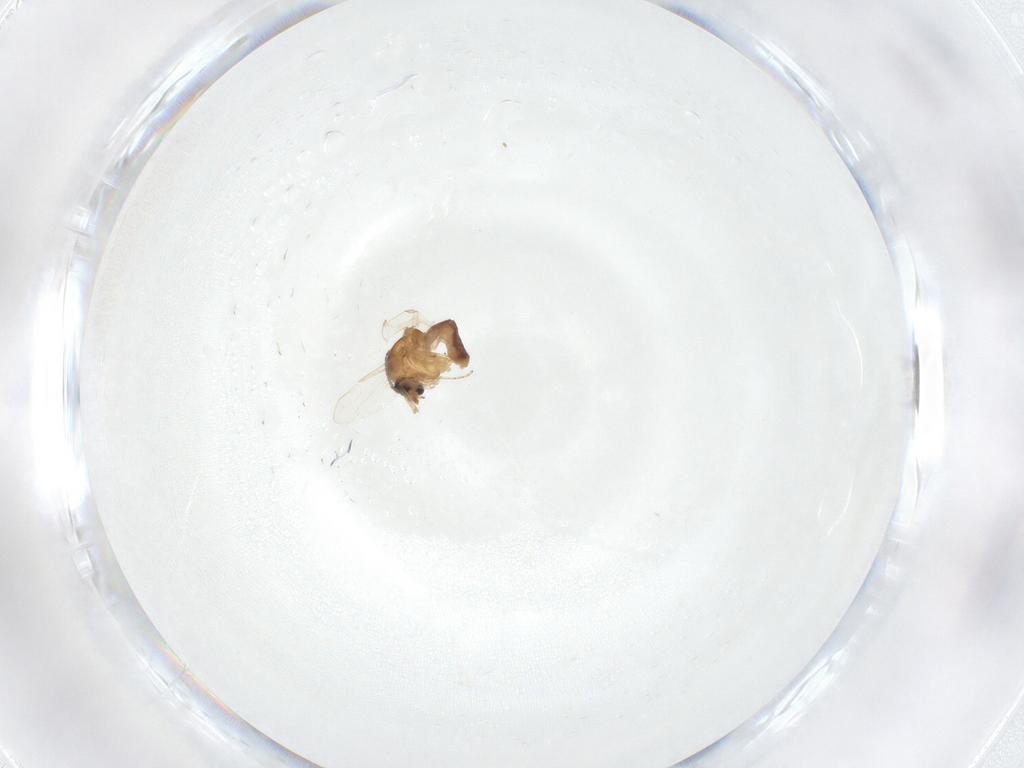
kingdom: Animalia
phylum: Arthropoda
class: Insecta
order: Diptera
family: Ceratopogonidae
